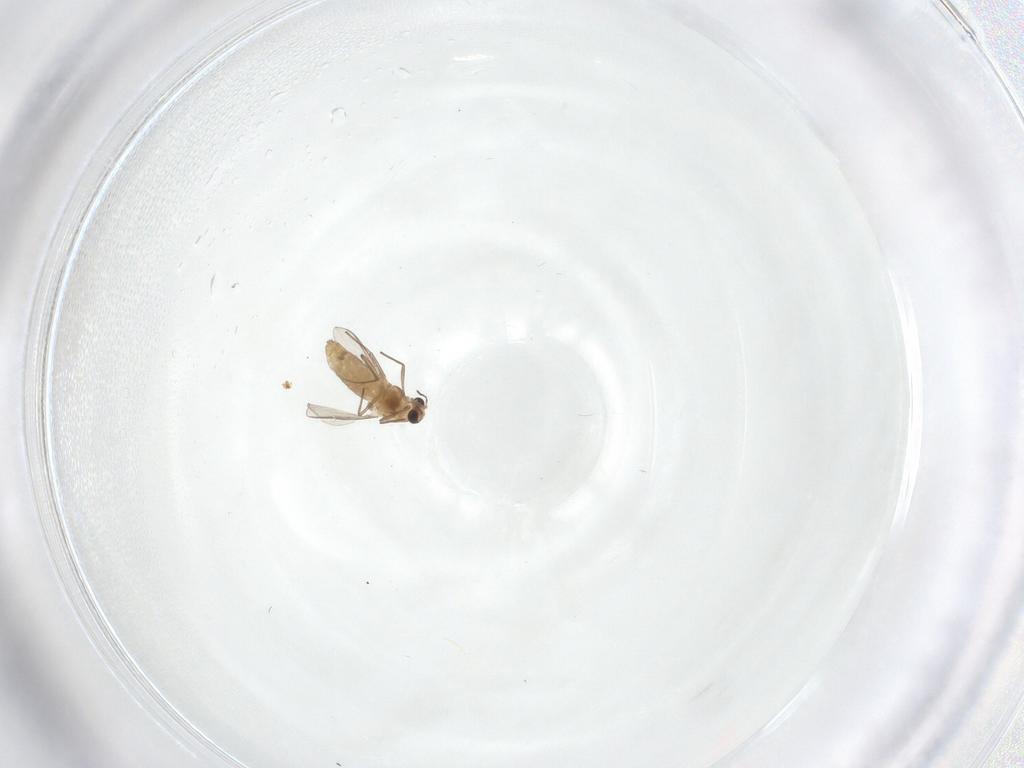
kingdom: Animalia
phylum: Arthropoda
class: Insecta
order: Diptera
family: Chironomidae
